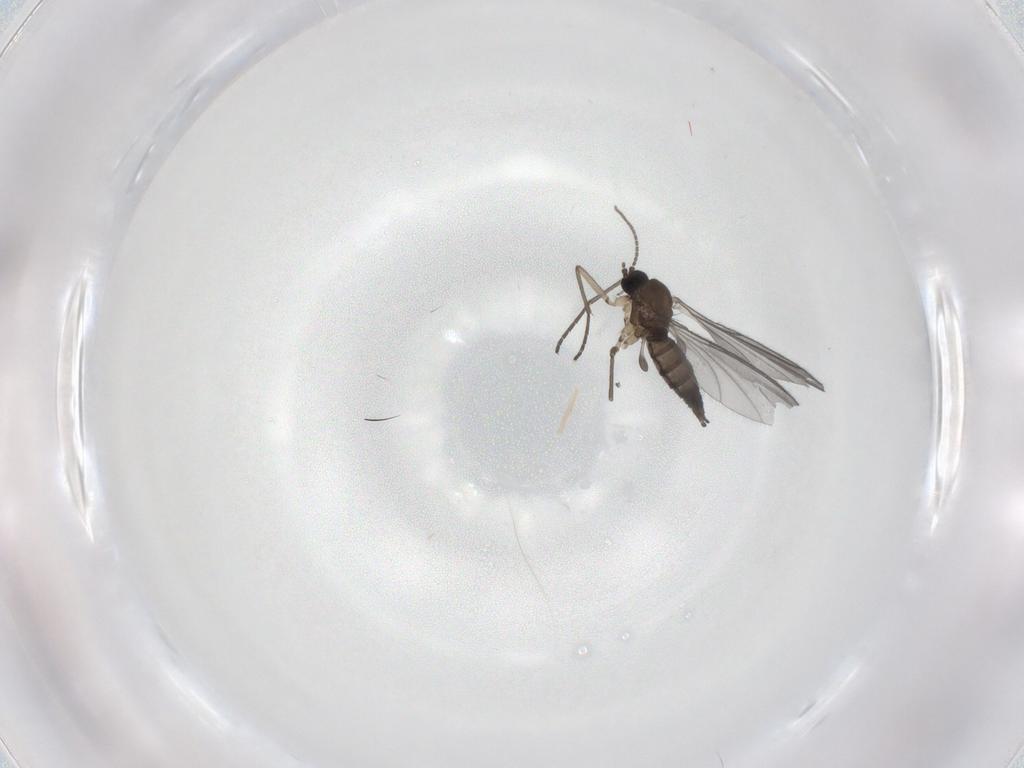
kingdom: Animalia
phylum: Arthropoda
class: Insecta
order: Diptera
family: Sciaridae
